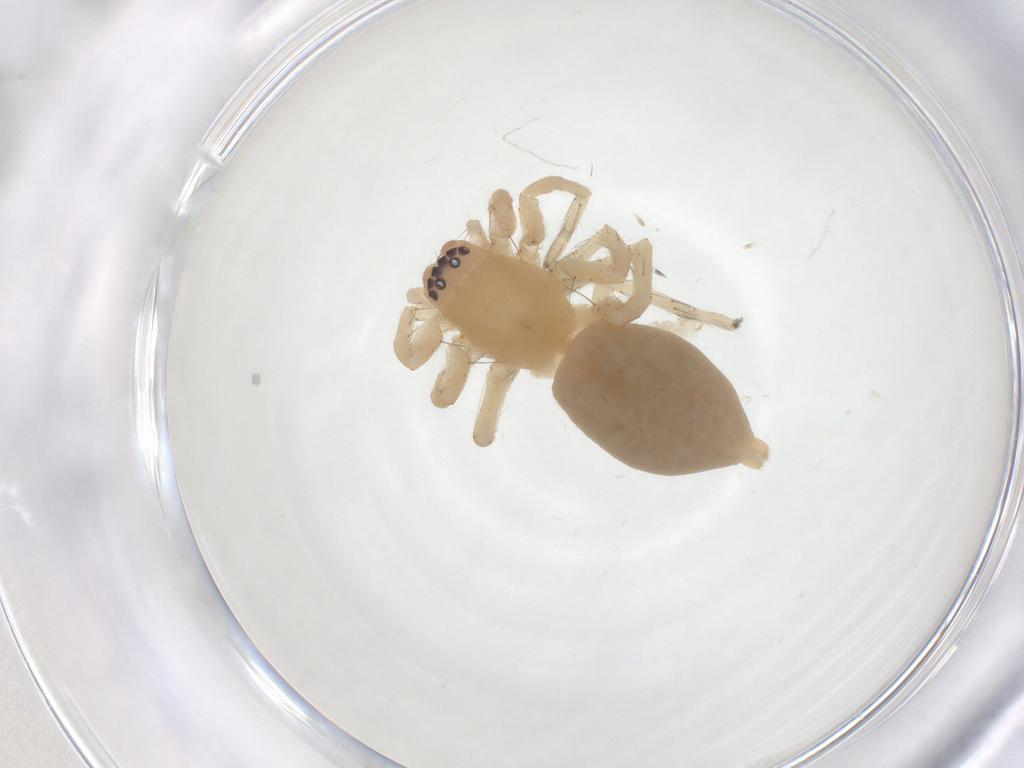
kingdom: Animalia
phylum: Arthropoda
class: Arachnida
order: Araneae
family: Clubionidae
